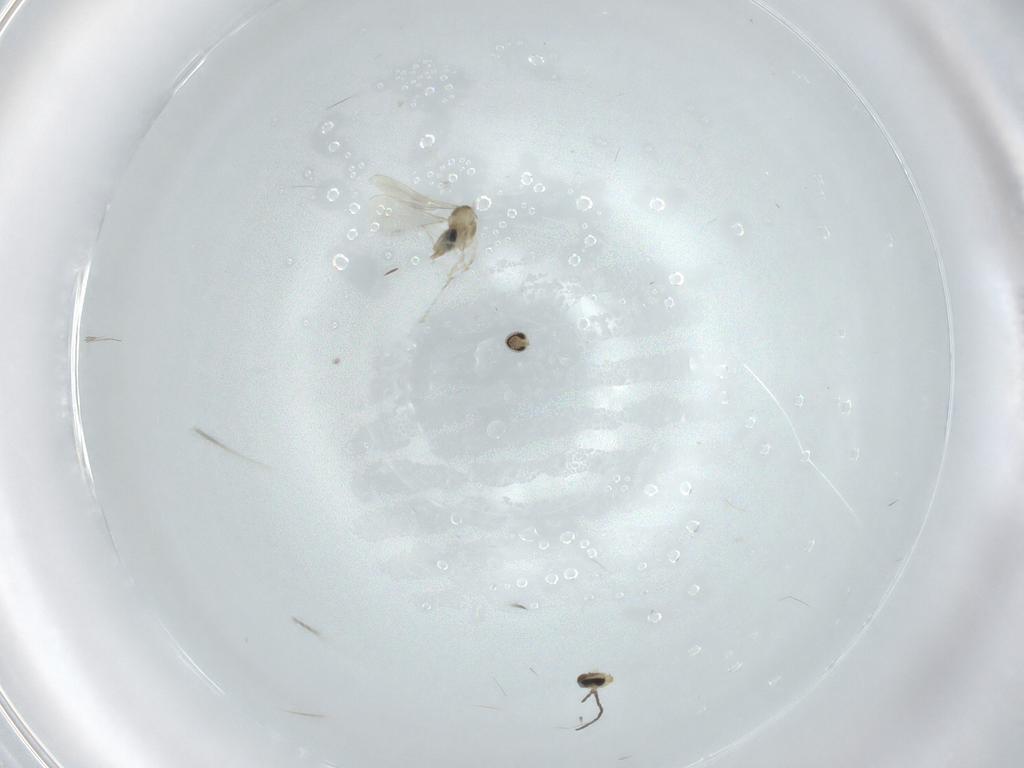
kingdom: Animalia
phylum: Arthropoda
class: Insecta
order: Diptera
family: Cecidomyiidae
